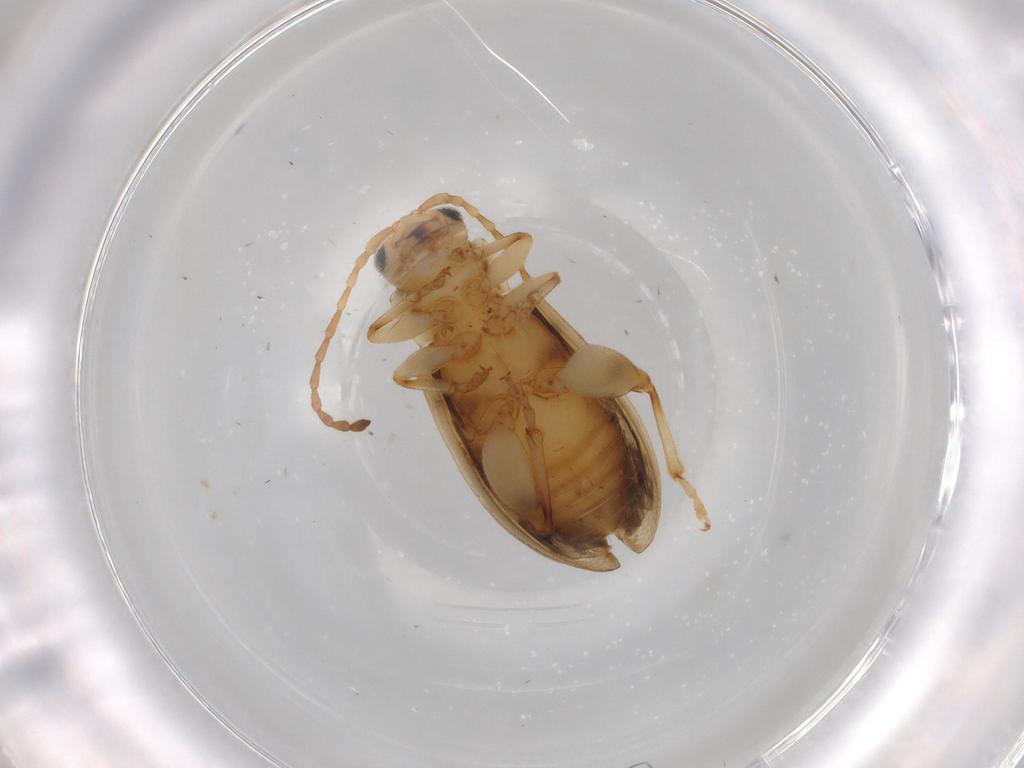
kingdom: Animalia
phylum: Arthropoda
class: Insecta
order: Coleoptera
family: Chrysomelidae
